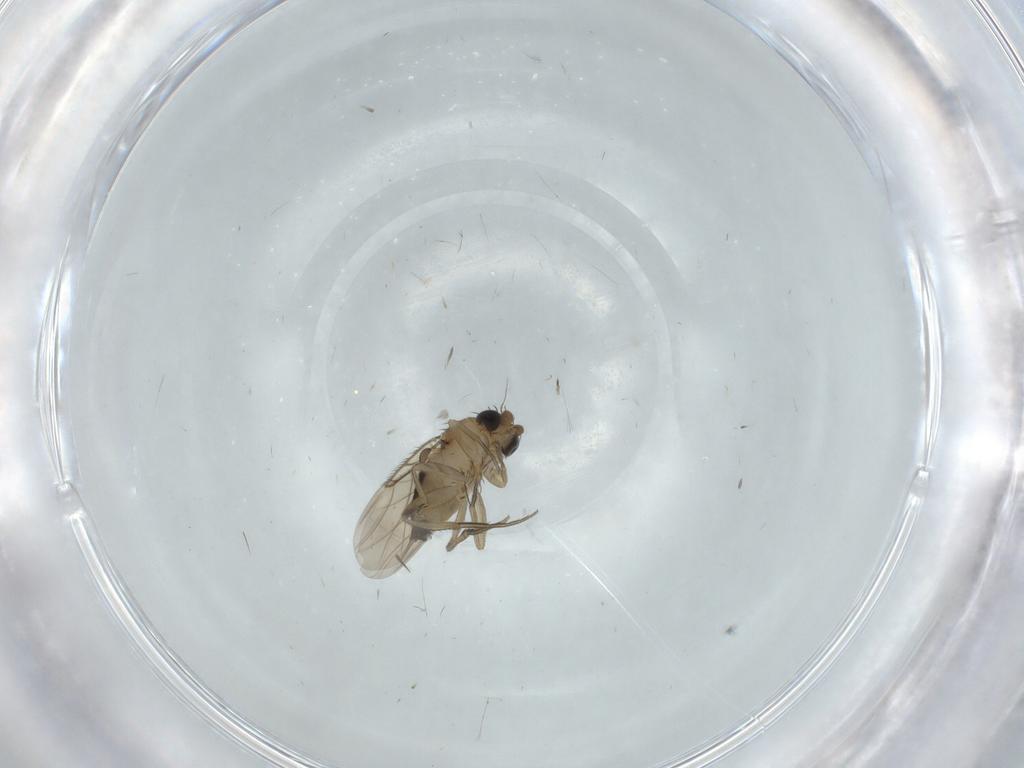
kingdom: Animalia
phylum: Arthropoda
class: Insecta
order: Diptera
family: Phoridae
